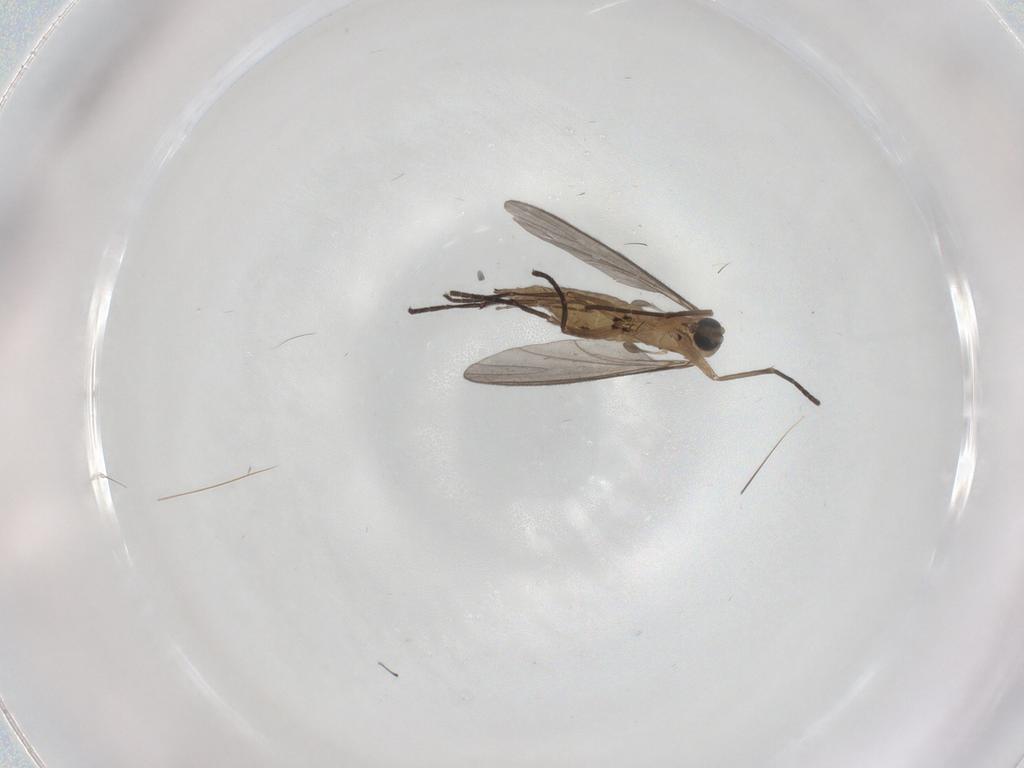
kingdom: Animalia
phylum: Arthropoda
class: Insecta
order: Diptera
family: Ceratopogonidae
